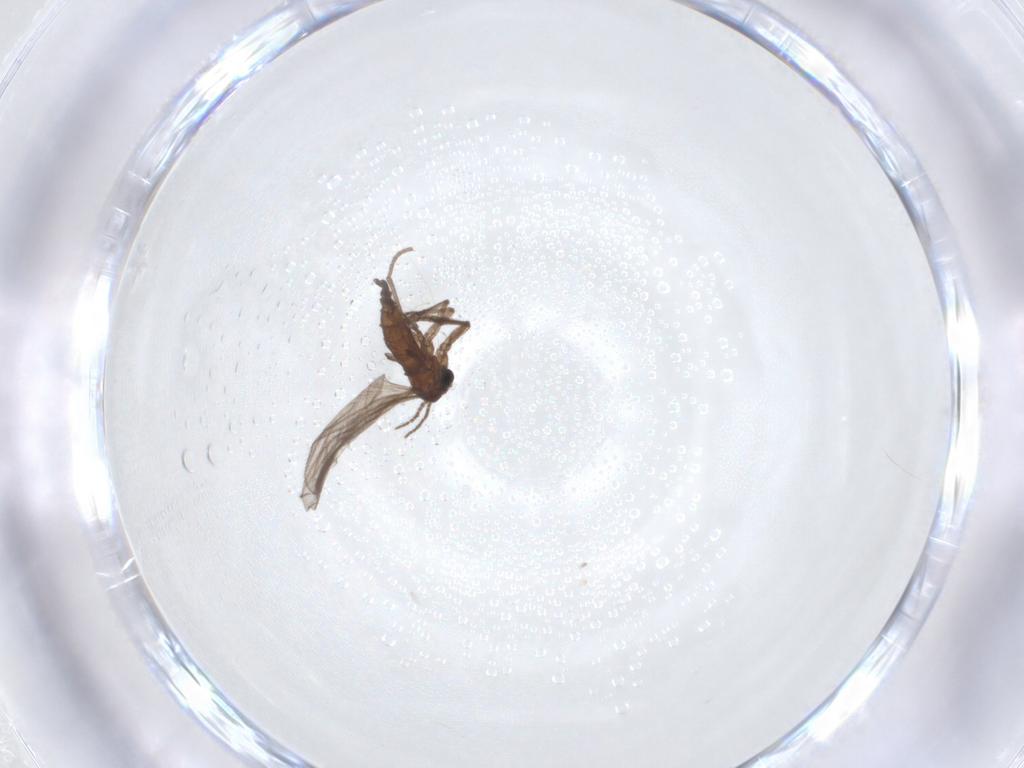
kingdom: Animalia
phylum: Arthropoda
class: Insecta
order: Diptera
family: Sciaridae
